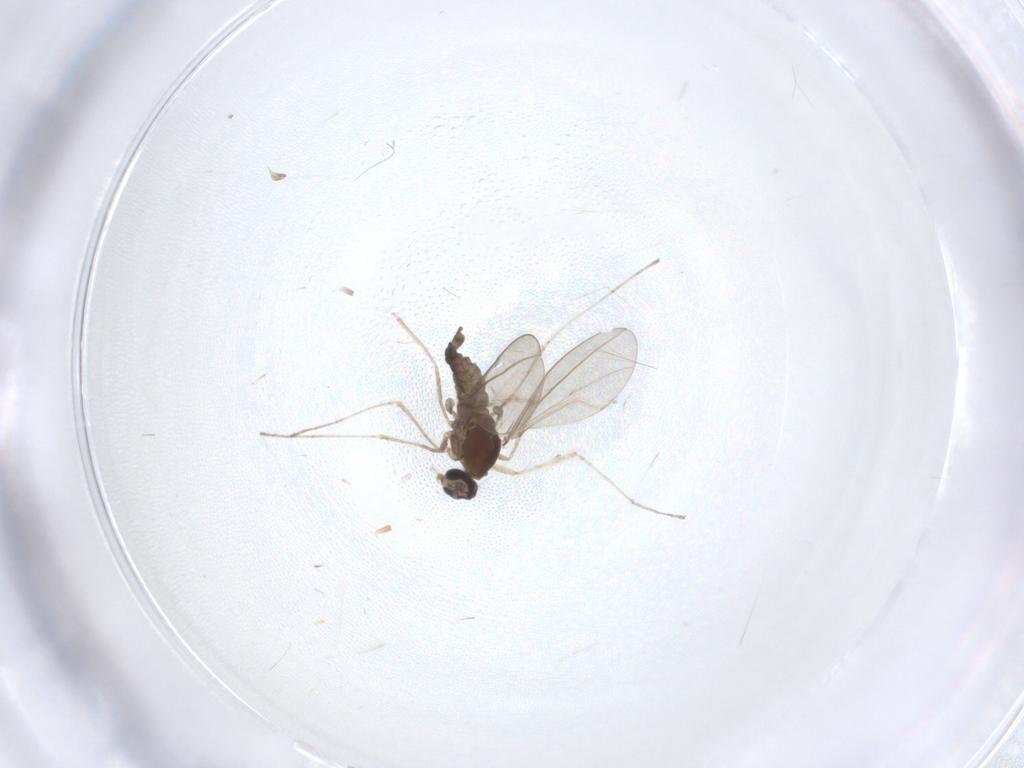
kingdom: Animalia
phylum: Arthropoda
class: Insecta
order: Diptera
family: Cecidomyiidae
